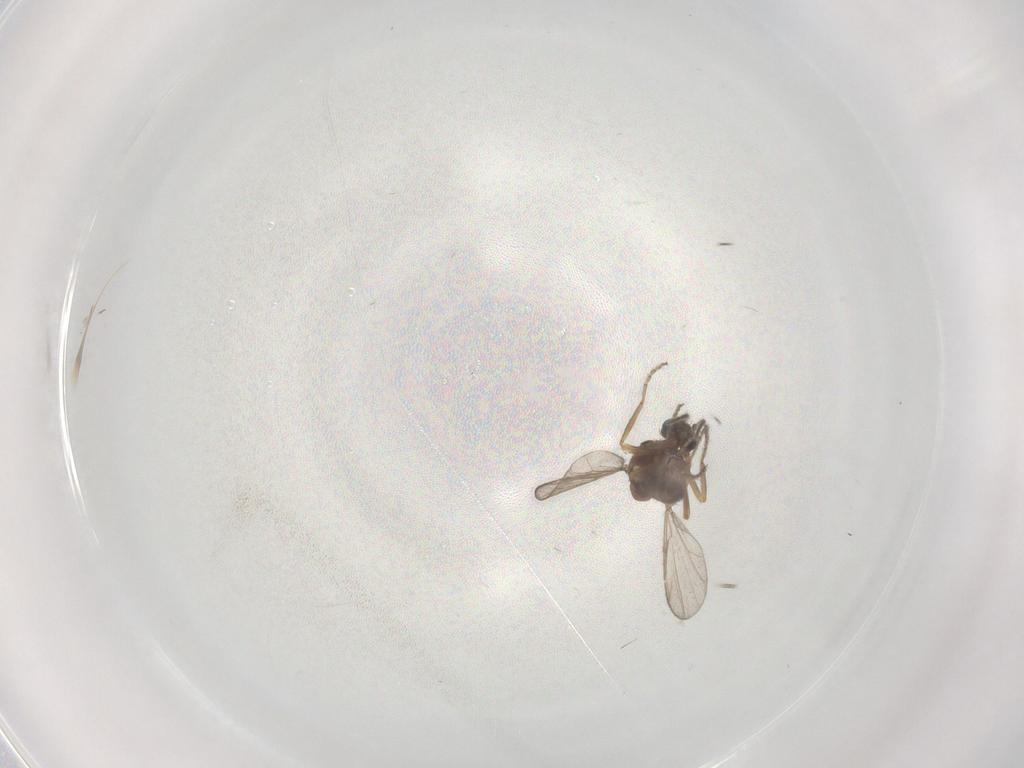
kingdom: Animalia
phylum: Arthropoda
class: Insecta
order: Diptera
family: Ceratopogonidae
